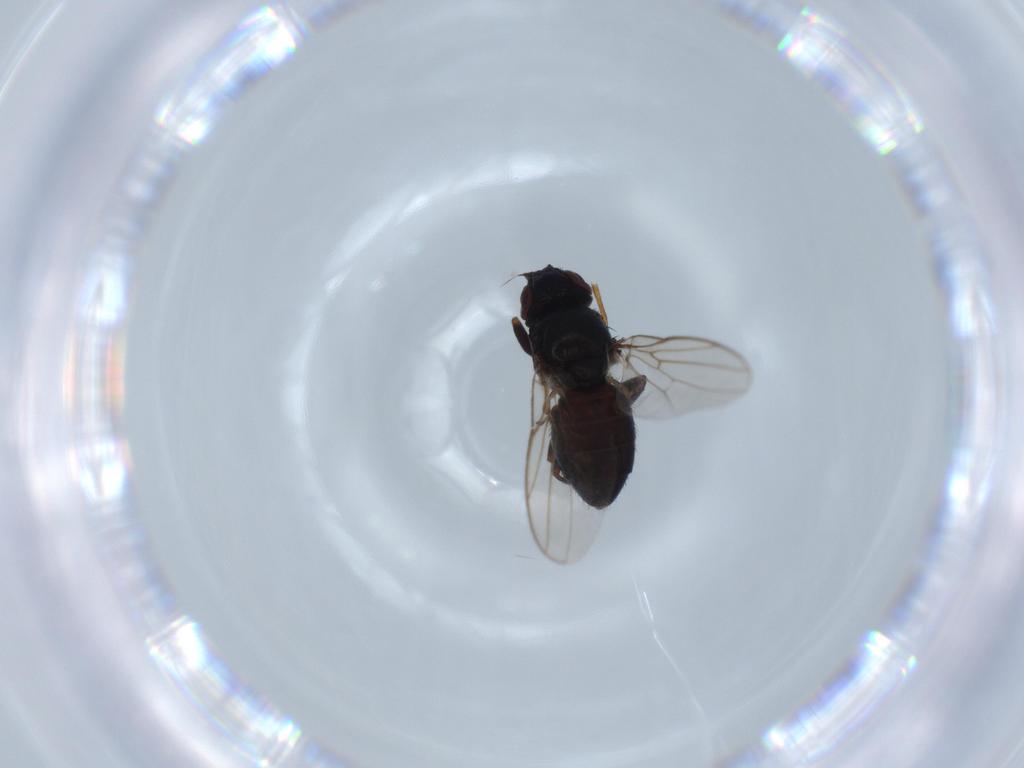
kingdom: Animalia
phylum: Arthropoda
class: Insecta
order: Diptera
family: Chloropidae
